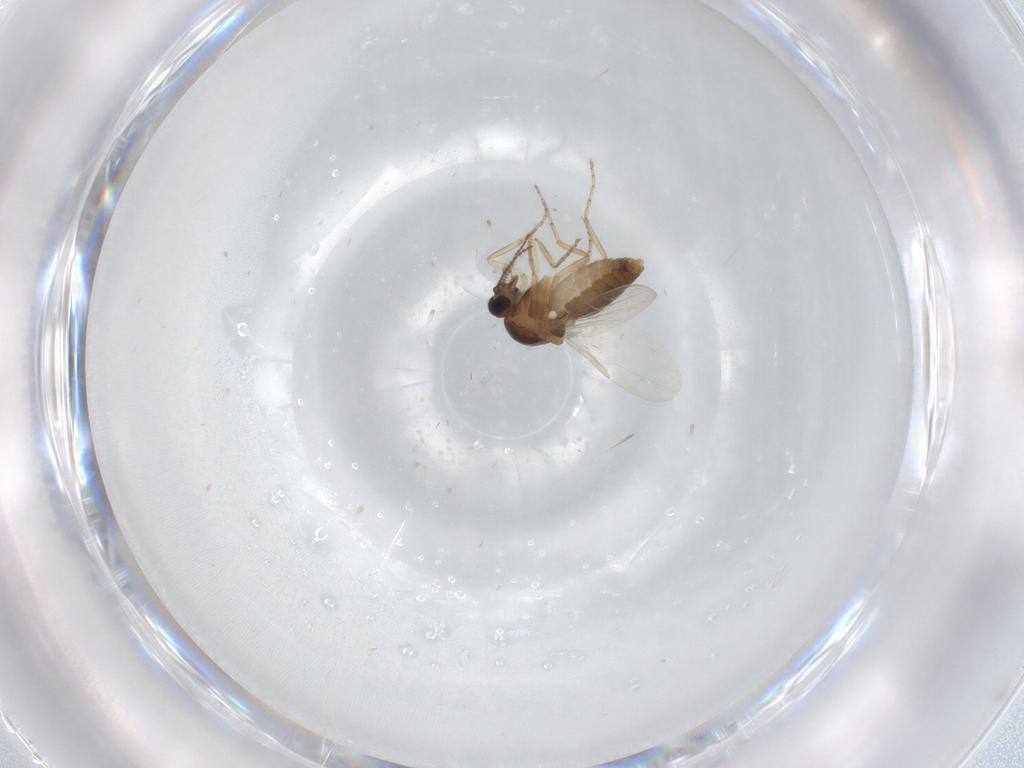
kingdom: Animalia
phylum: Arthropoda
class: Insecta
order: Diptera
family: Ceratopogonidae
